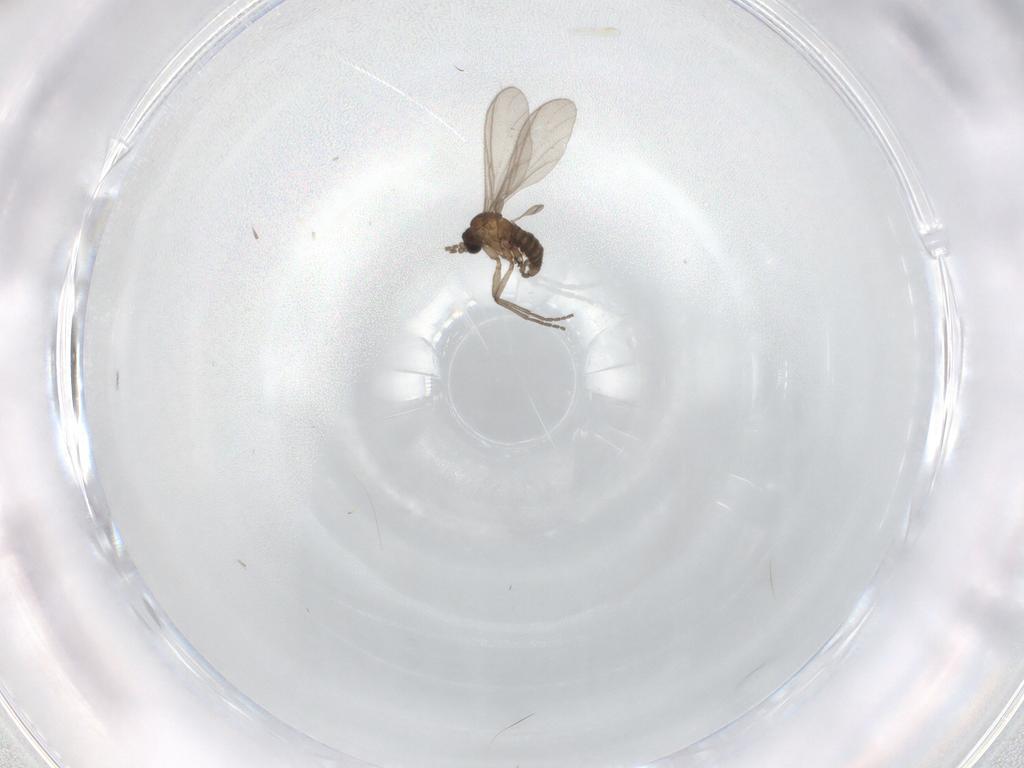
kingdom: Animalia
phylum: Arthropoda
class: Insecta
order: Diptera
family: Sciaridae
